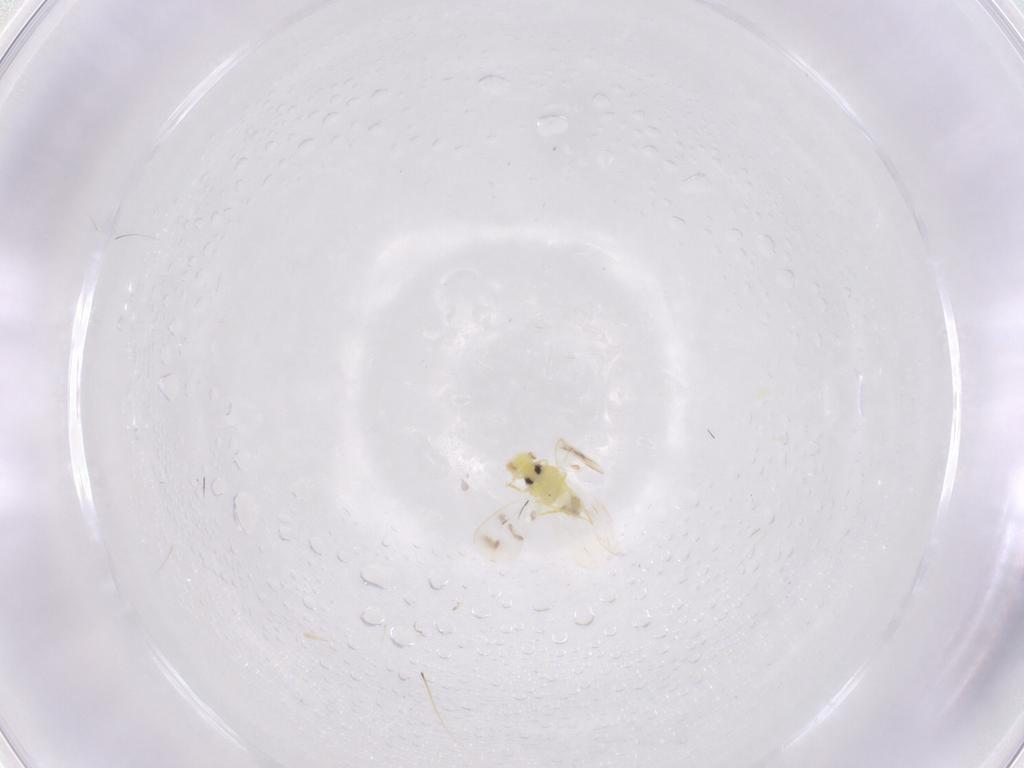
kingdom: Animalia
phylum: Arthropoda
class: Insecta
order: Hemiptera
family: Aleyrodidae
